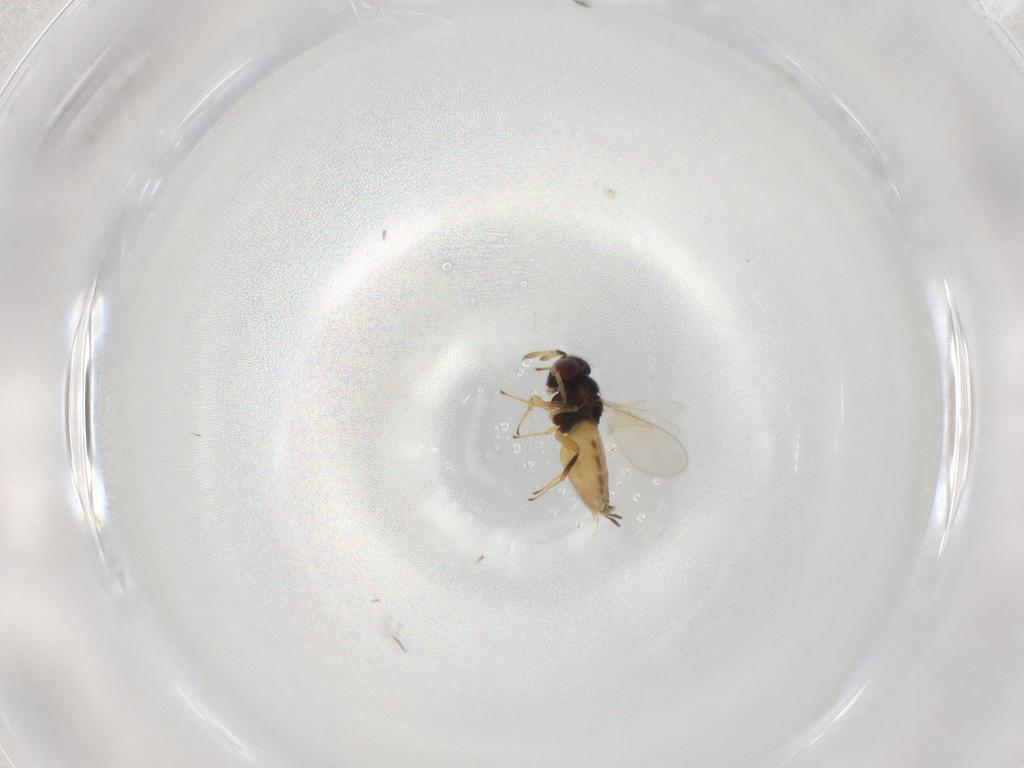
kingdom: Animalia
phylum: Arthropoda
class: Insecta
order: Hymenoptera
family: Aphelinidae
